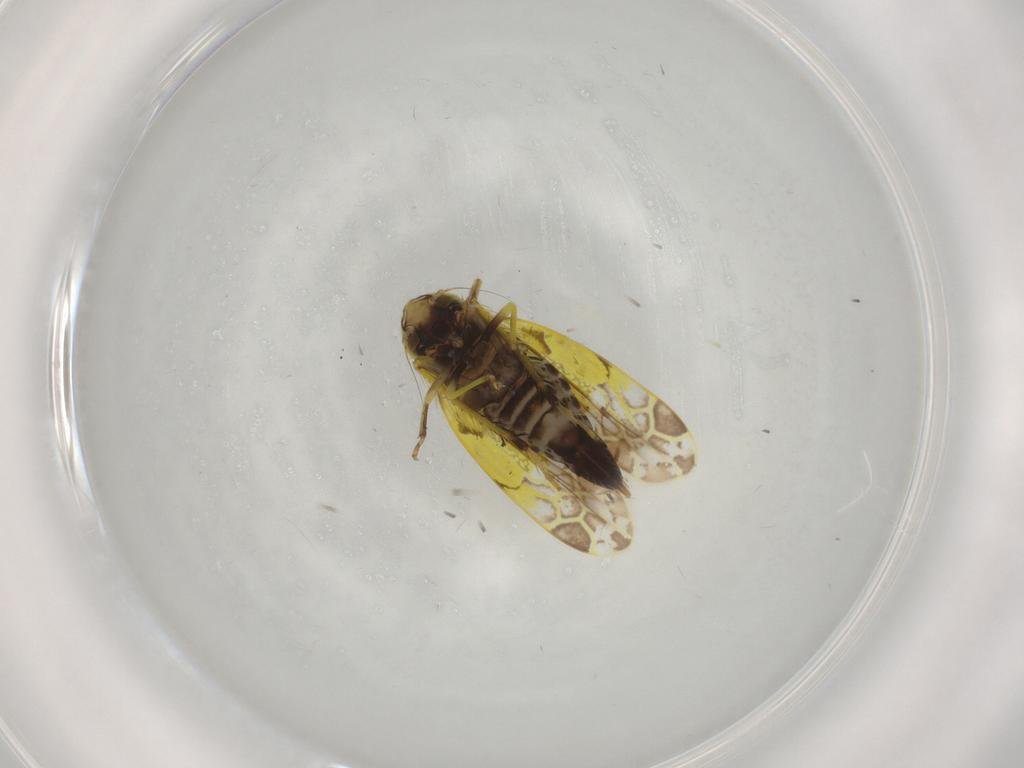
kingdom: Animalia
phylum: Arthropoda
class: Insecta
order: Hemiptera
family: Cicadellidae
